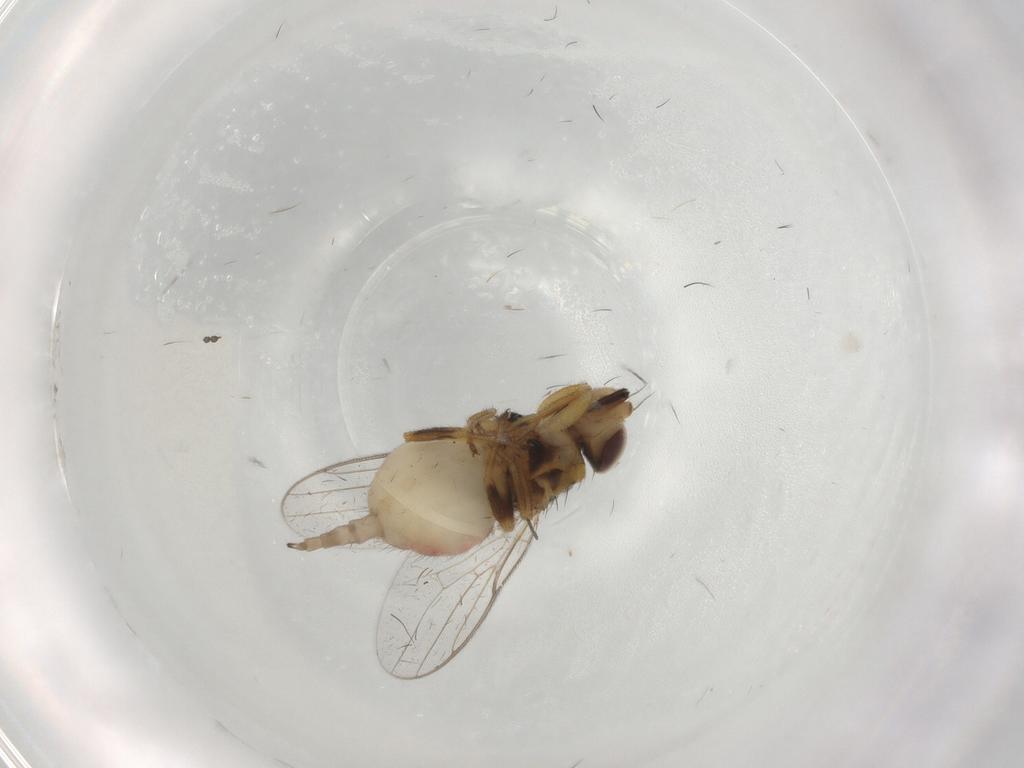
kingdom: Animalia
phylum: Arthropoda
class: Insecta
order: Diptera
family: Chloropidae
